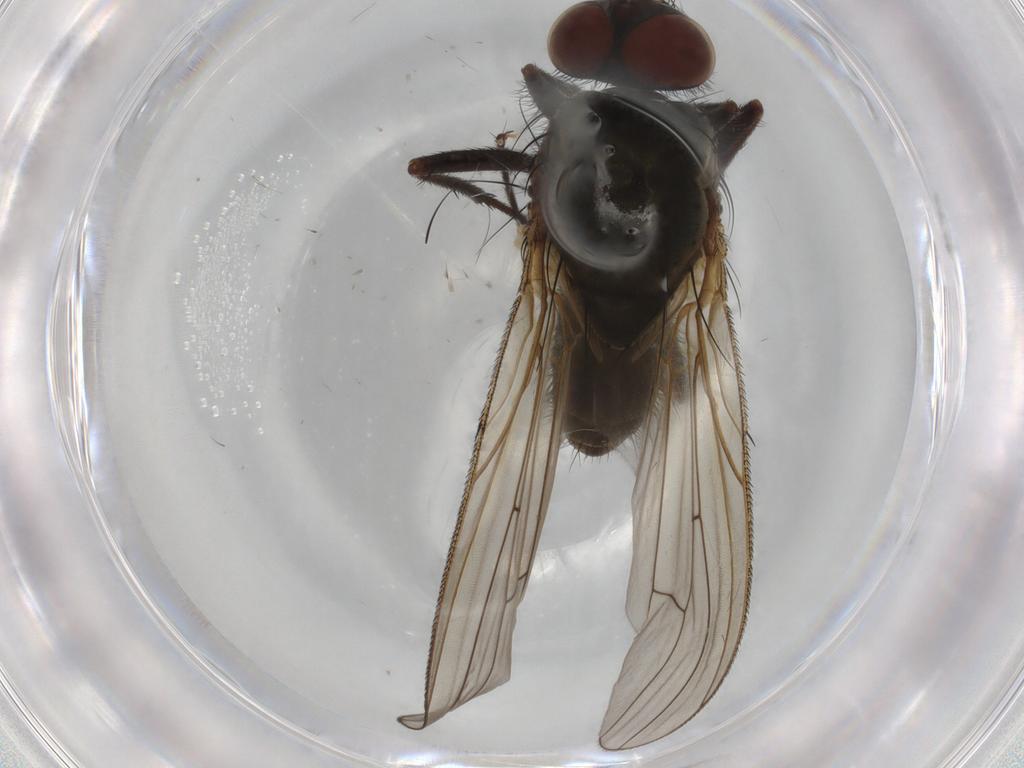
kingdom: Animalia
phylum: Arthropoda
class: Insecta
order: Diptera
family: Anthomyiidae
